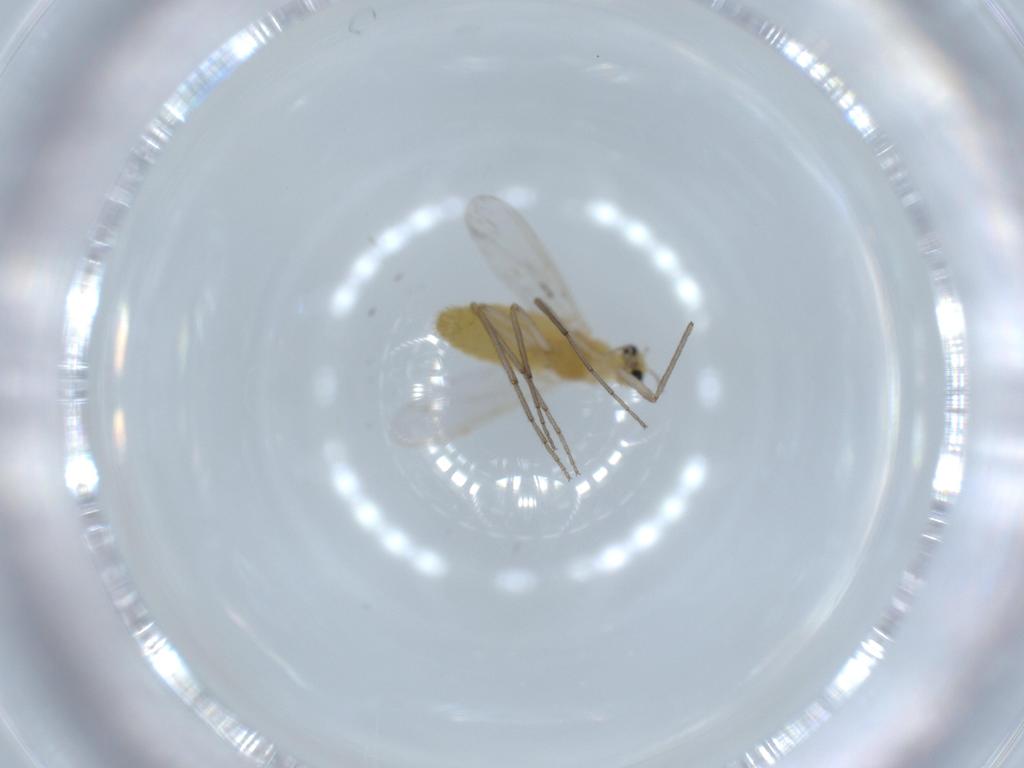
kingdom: Animalia
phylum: Arthropoda
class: Insecta
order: Diptera
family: Chironomidae
